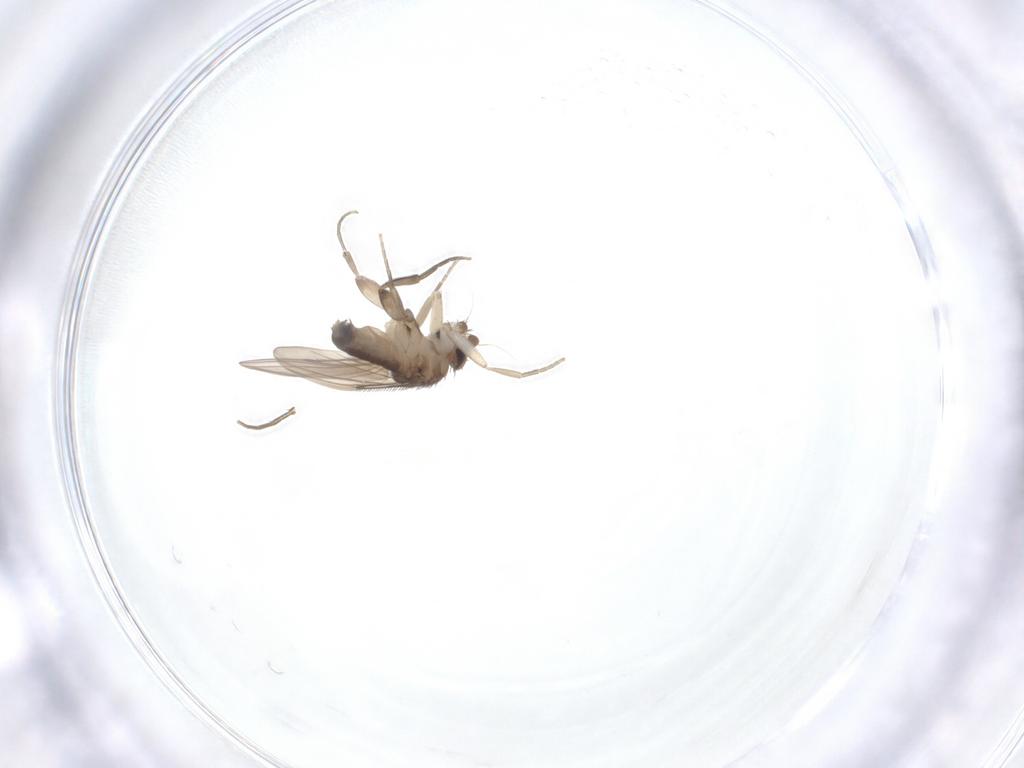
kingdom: Animalia
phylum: Arthropoda
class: Insecta
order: Diptera
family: Phoridae
